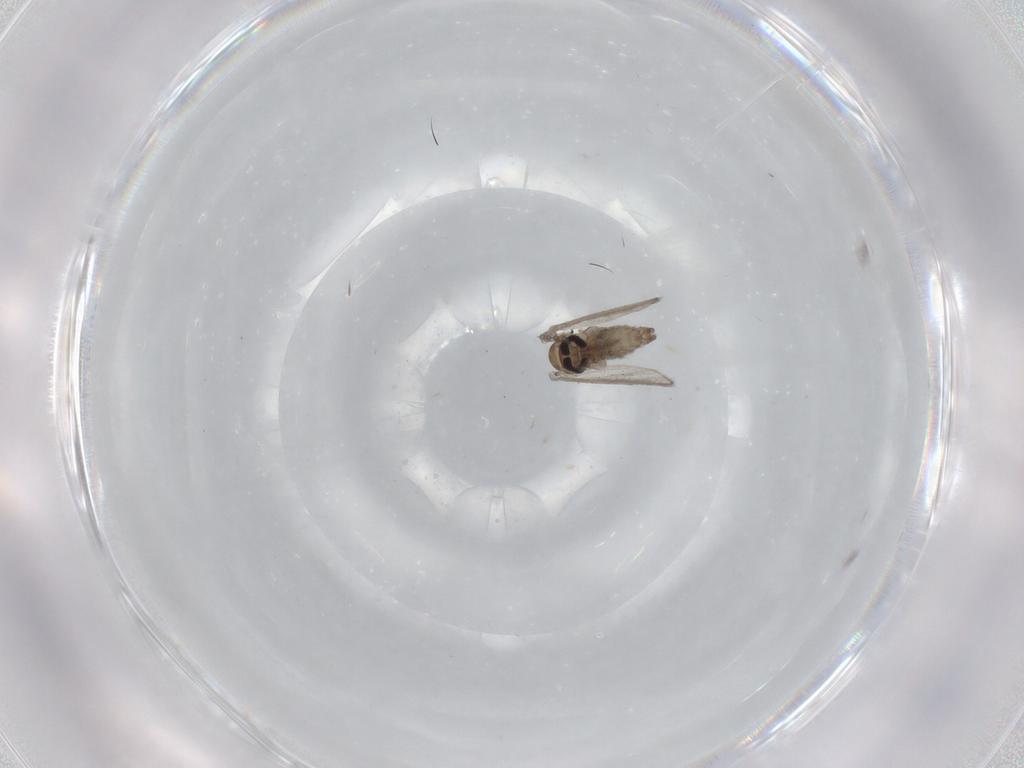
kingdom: Animalia
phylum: Arthropoda
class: Insecta
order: Diptera
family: Psychodidae
